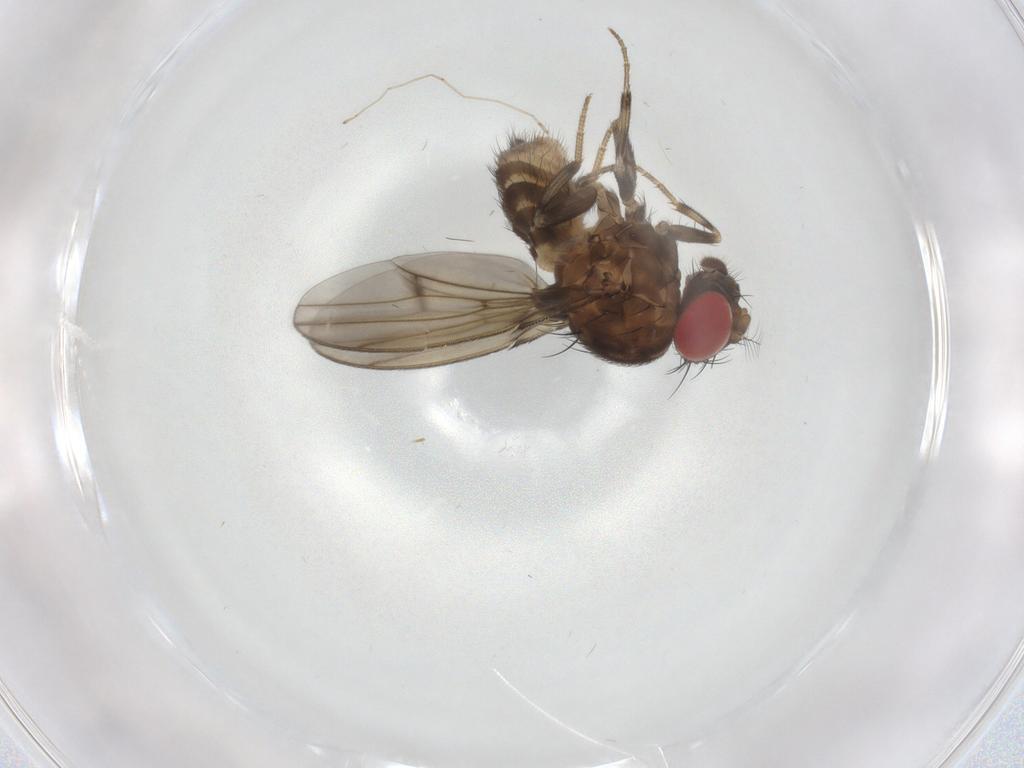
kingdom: Animalia
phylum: Arthropoda
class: Insecta
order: Diptera
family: Drosophilidae
